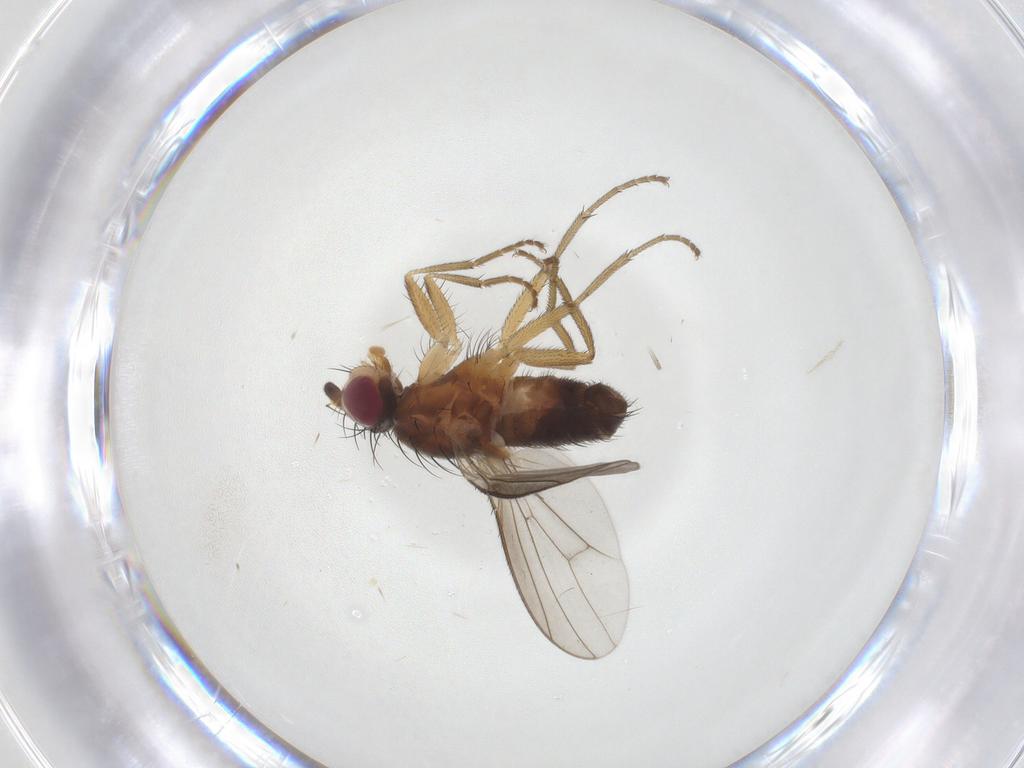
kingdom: Animalia
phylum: Arthropoda
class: Insecta
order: Diptera
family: Heleomyzidae
